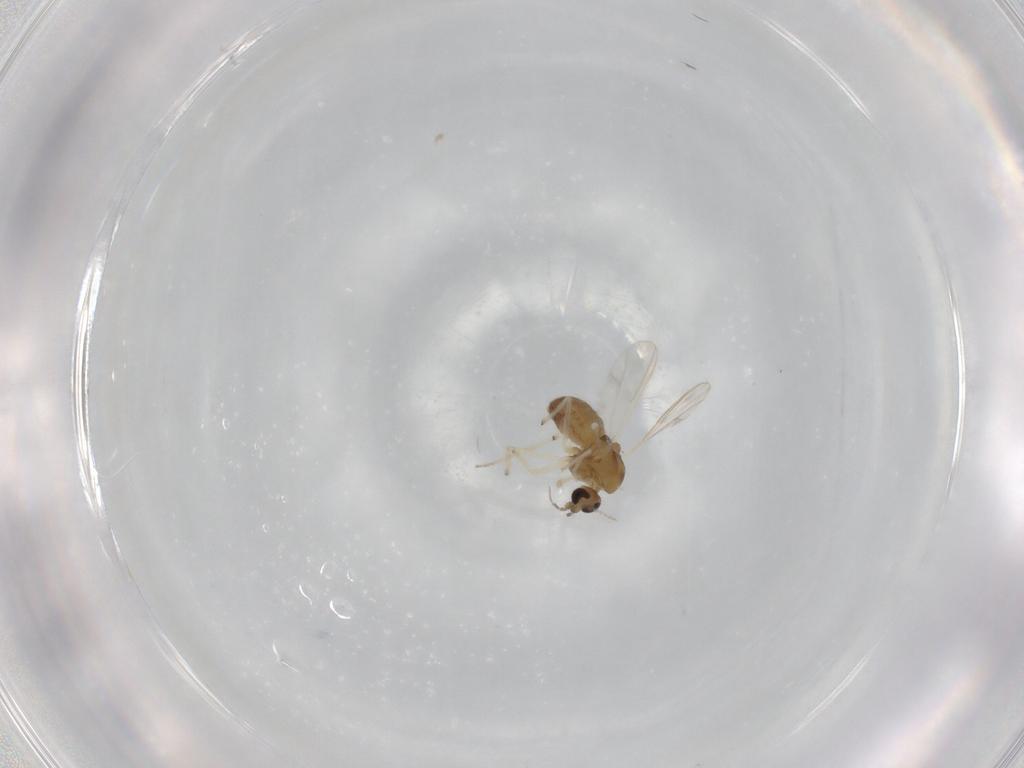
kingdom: Animalia
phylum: Arthropoda
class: Insecta
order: Diptera
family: Chironomidae
